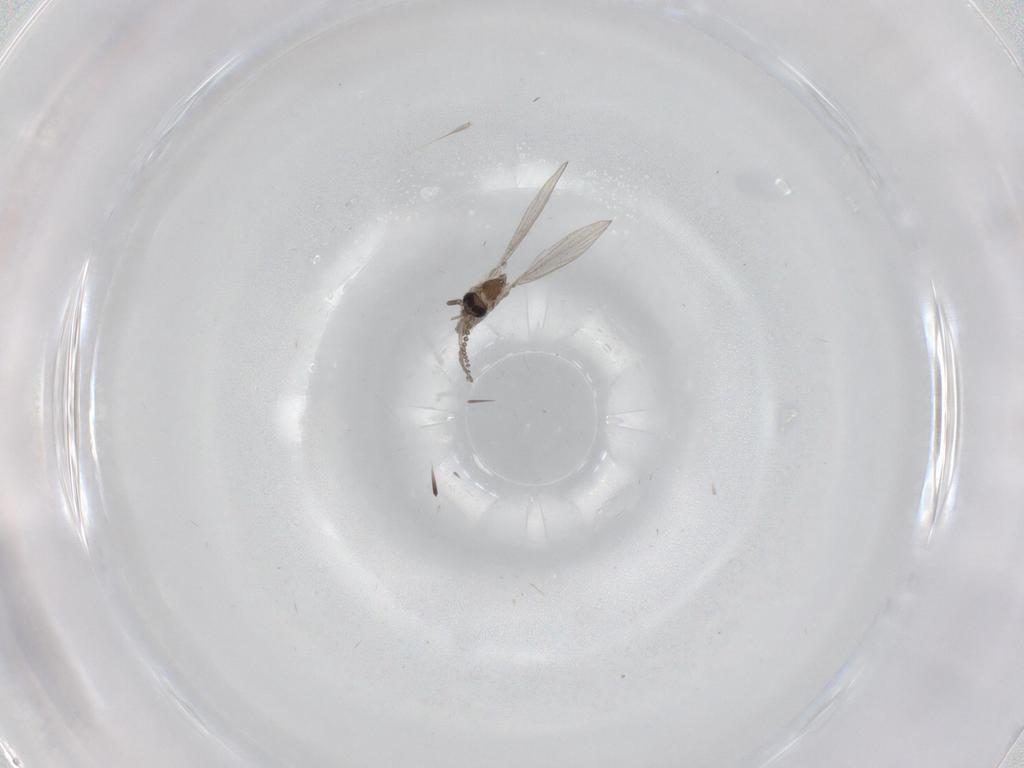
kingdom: Animalia
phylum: Arthropoda
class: Insecta
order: Diptera
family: Psychodidae
